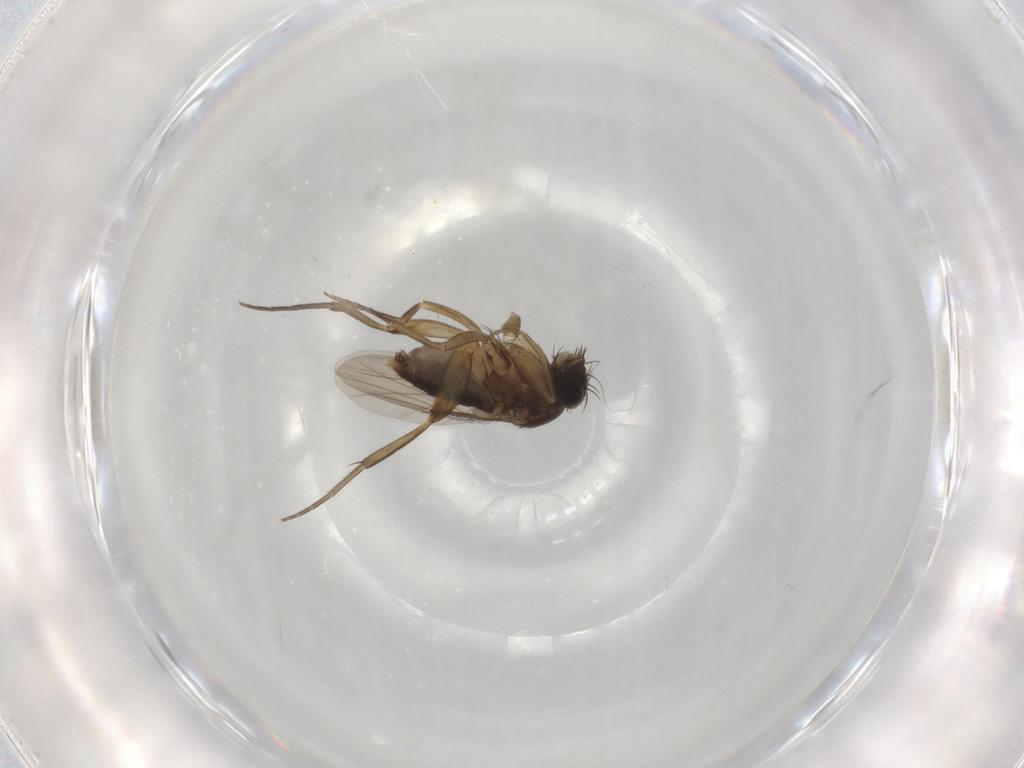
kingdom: Animalia
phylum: Arthropoda
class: Insecta
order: Diptera
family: Phoridae
